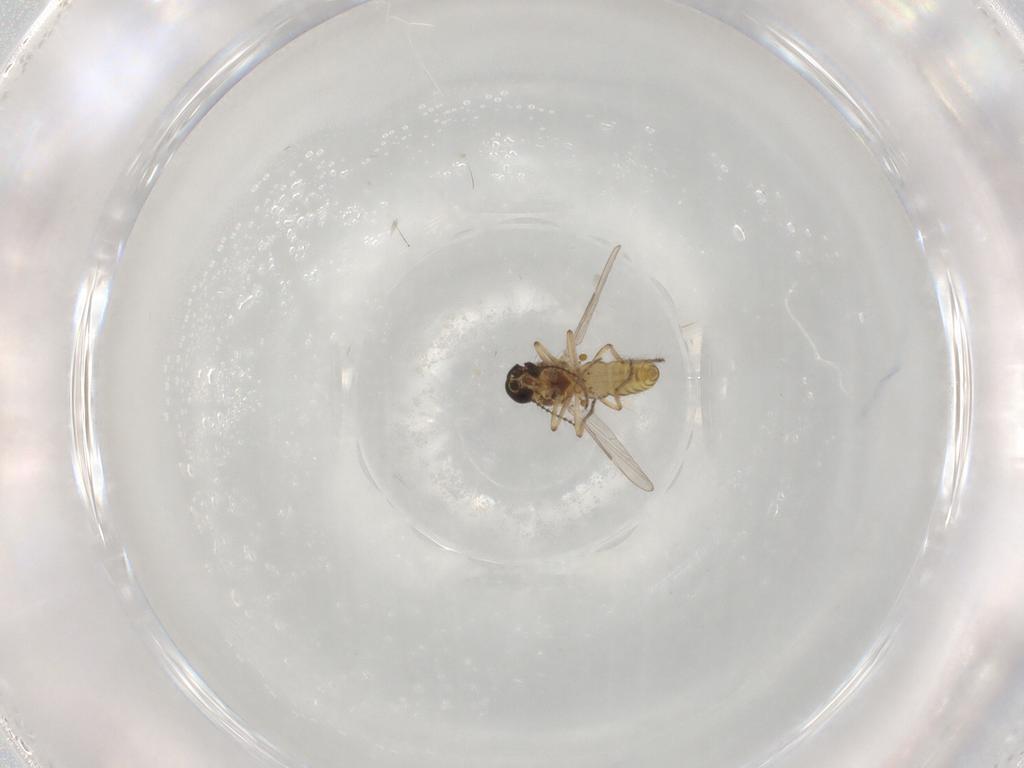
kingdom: Animalia
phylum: Arthropoda
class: Insecta
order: Diptera
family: Ceratopogonidae
